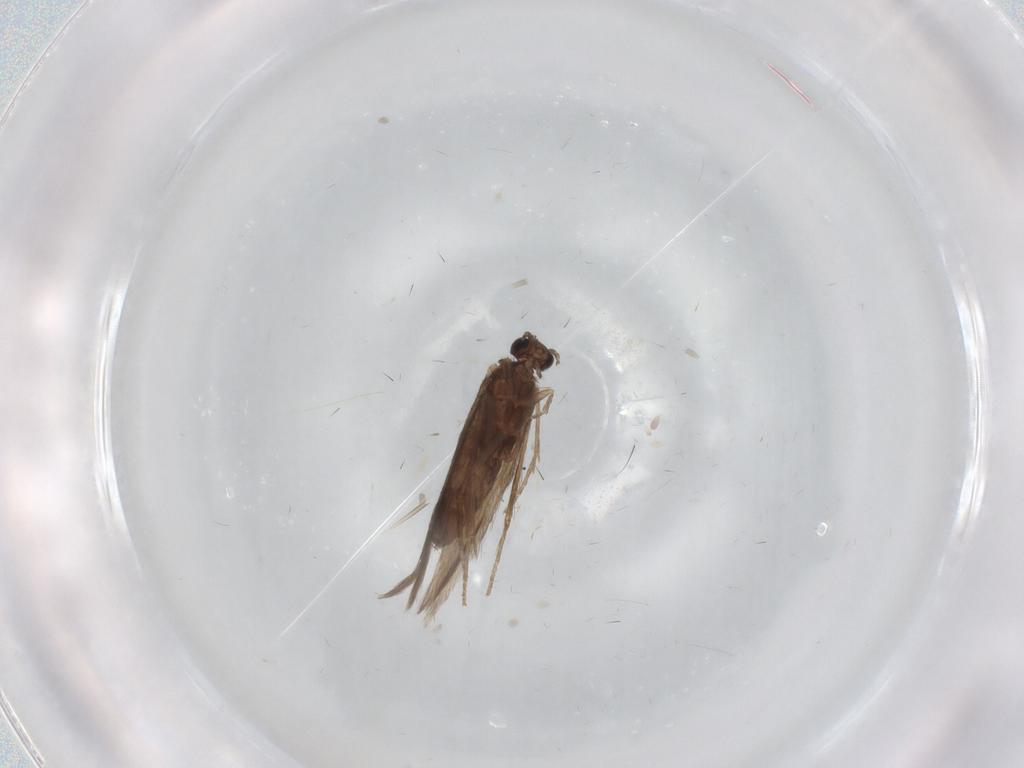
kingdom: Animalia
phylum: Arthropoda
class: Insecta
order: Trichoptera
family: Hydroptilidae
